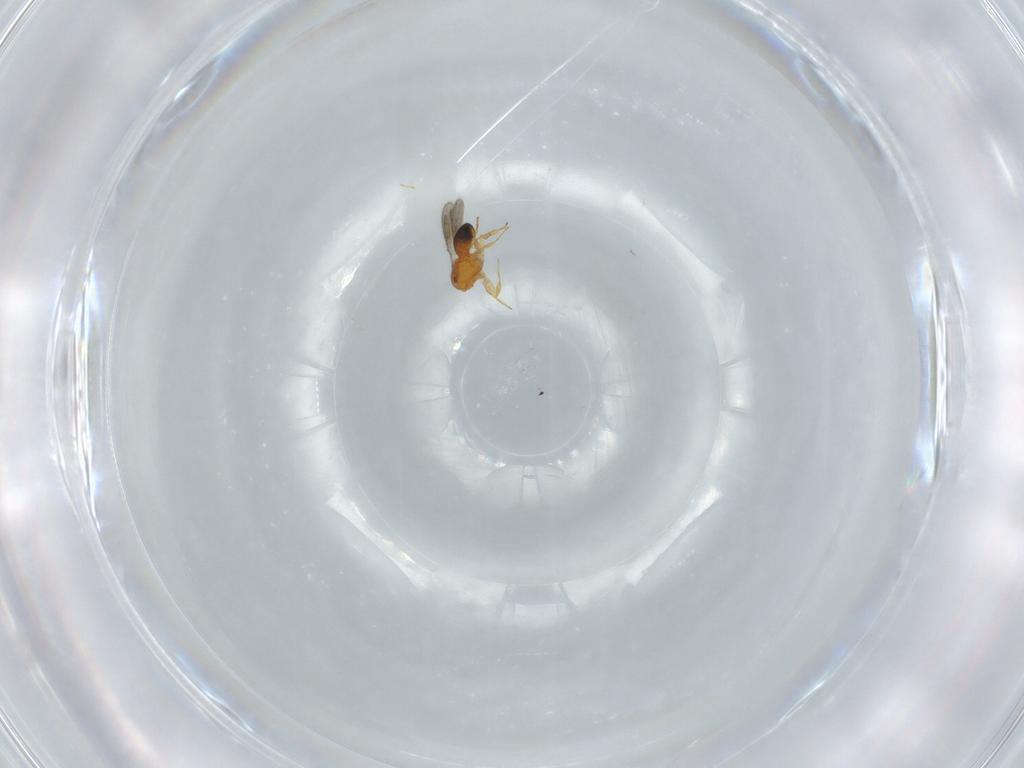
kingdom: Animalia
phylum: Arthropoda
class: Insecta
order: Hymenoptera
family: Scelionidae
